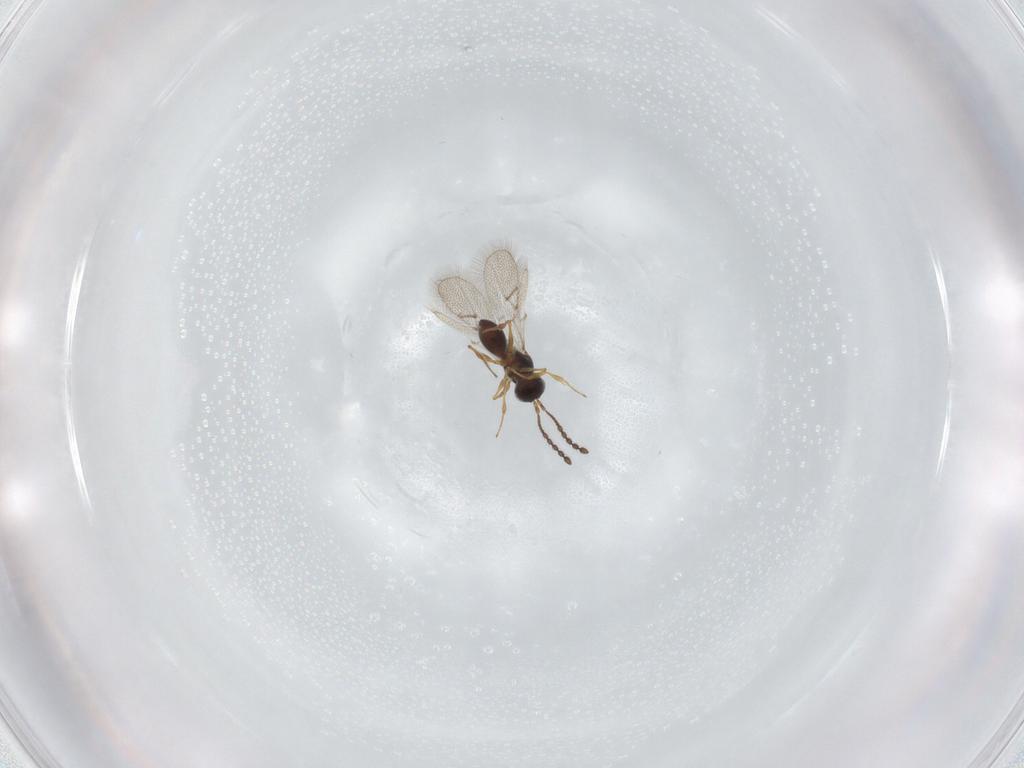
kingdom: Animalia
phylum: Arthropoda
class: Insecta
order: Hymenoptera
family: Figitidae
